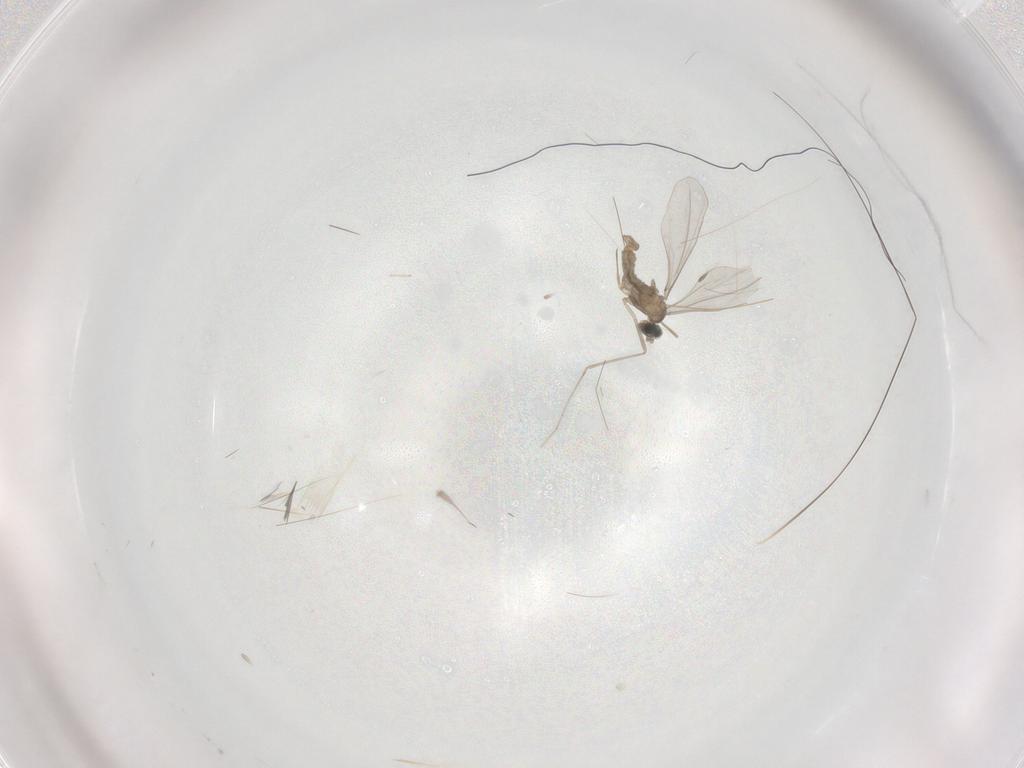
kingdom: Animalia
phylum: Arthropoda
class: Insecta
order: Diptera
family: Cecidomyiidae
